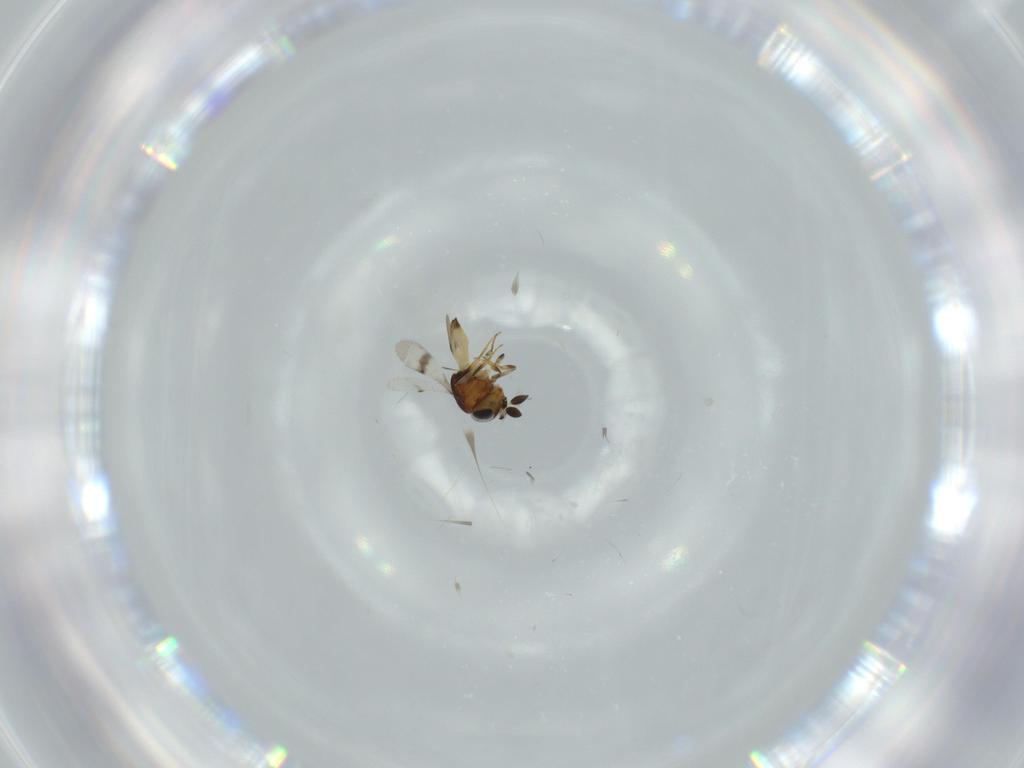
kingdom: Animalia
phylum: Arthropoda
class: Arachnida
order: Araneae
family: Pholcidae
